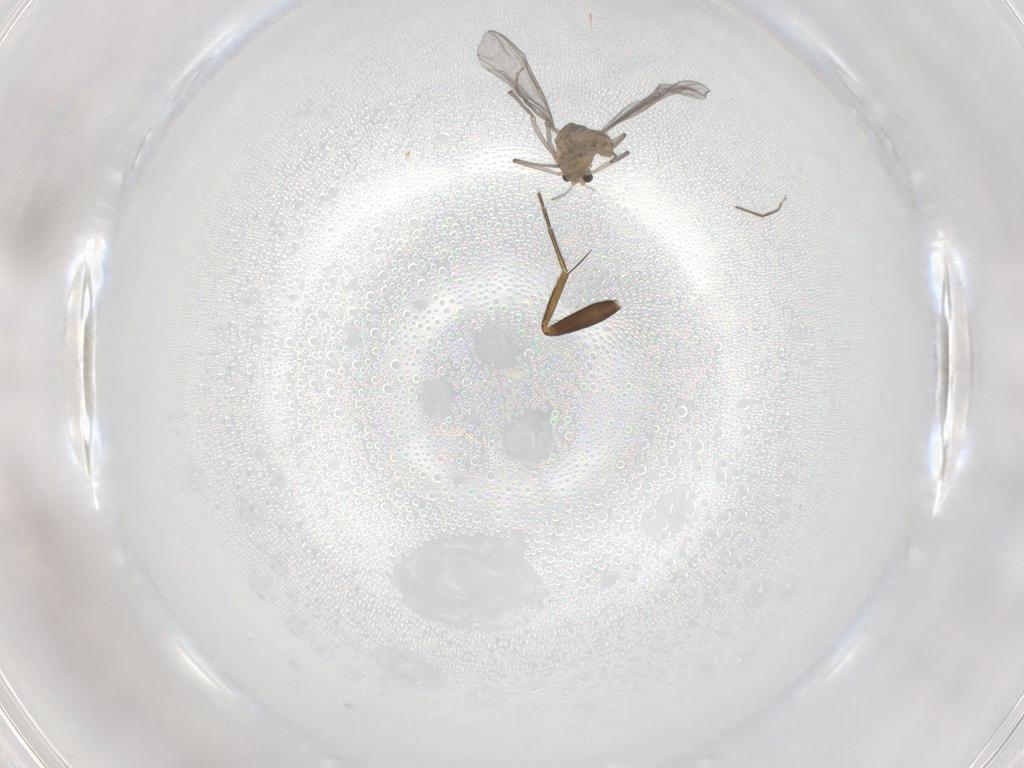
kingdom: Animalia
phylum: Arthropoda
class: Insecta
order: Diptera
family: Chironomidae
